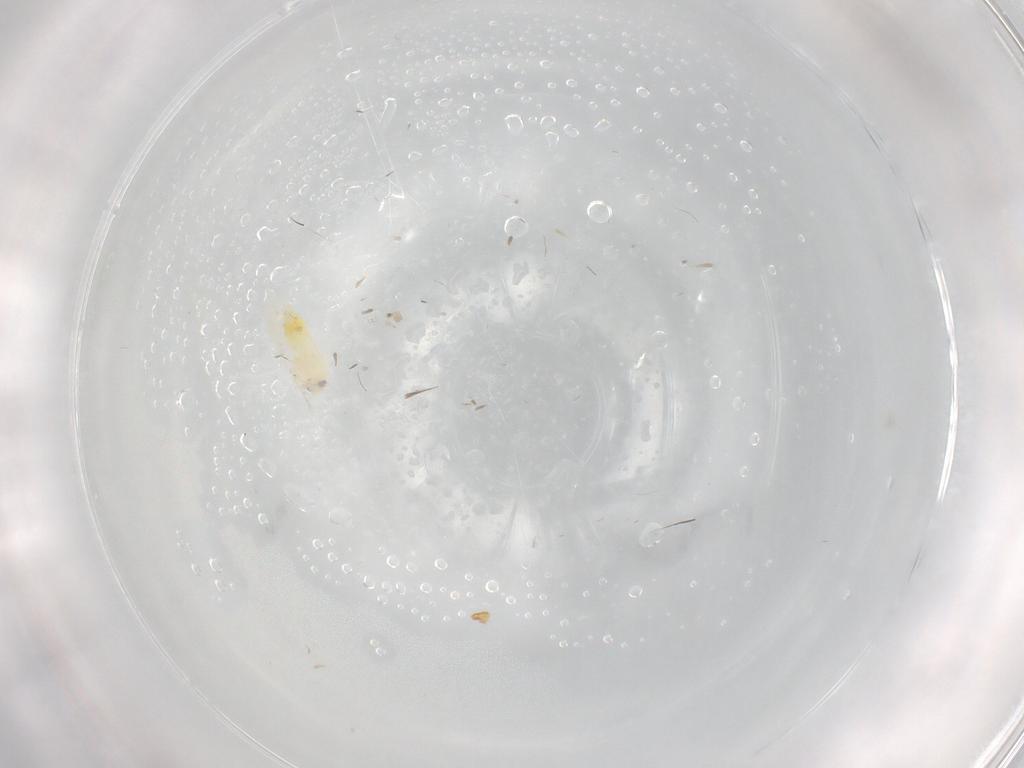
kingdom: Animalia
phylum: Arthropoda
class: Insecta
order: Hemiptera
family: Aleyrodidae
